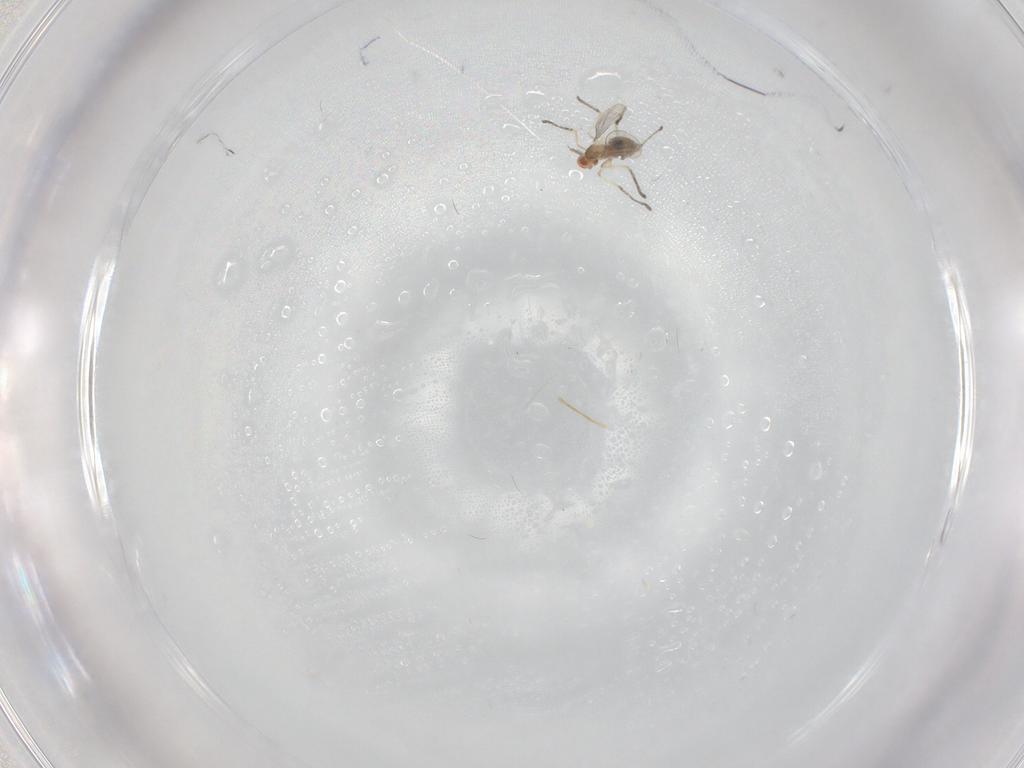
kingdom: Animalia
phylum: Arthropoda
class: Insecta
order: Diptera
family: Cecidomyiidae
